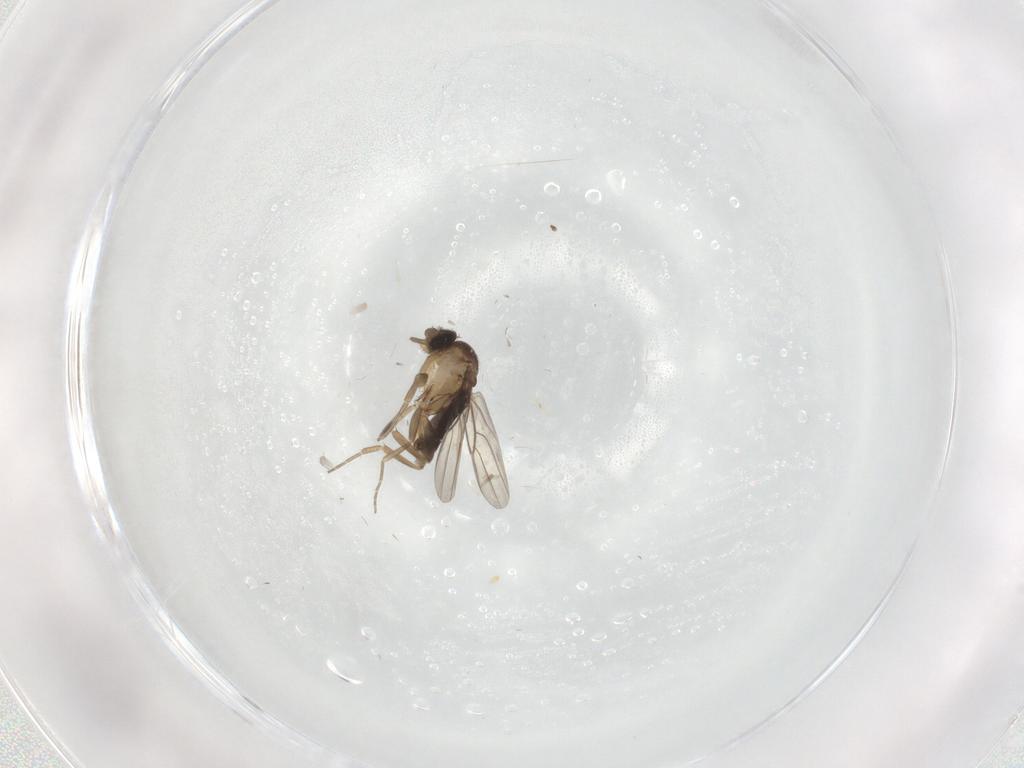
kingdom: Animalia
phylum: Arthropoda
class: Insecta
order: Diptera
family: Phoridae
